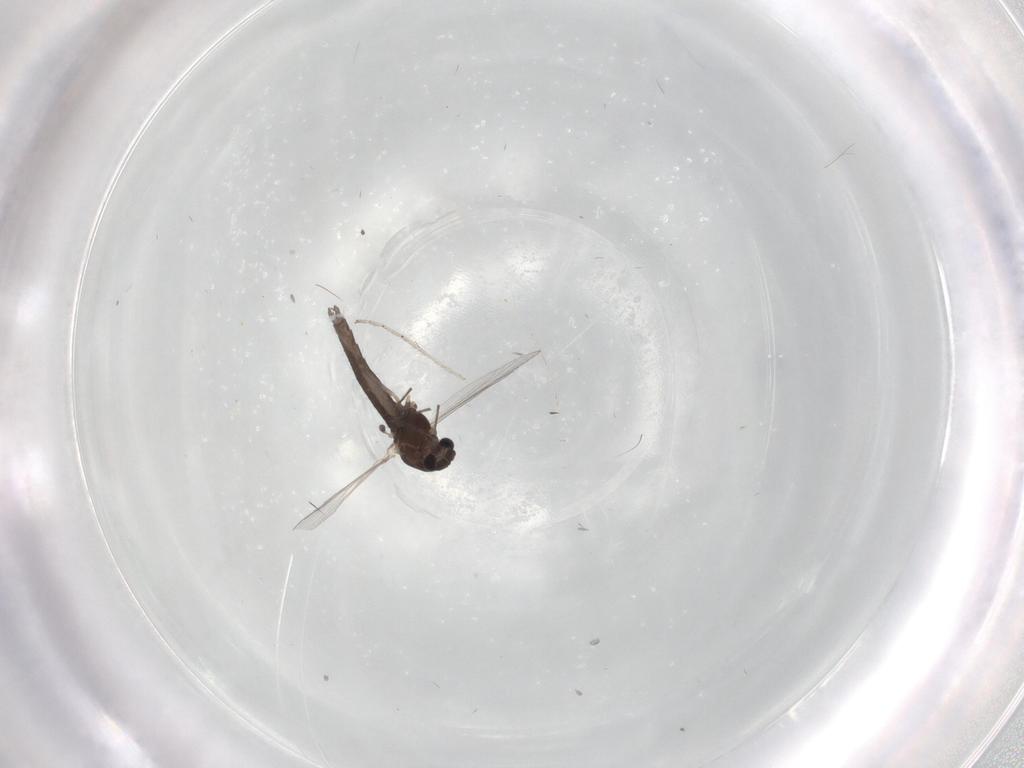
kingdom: Animalia
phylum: Arthropoda
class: Insecta
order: Diptera
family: Chironomidae
